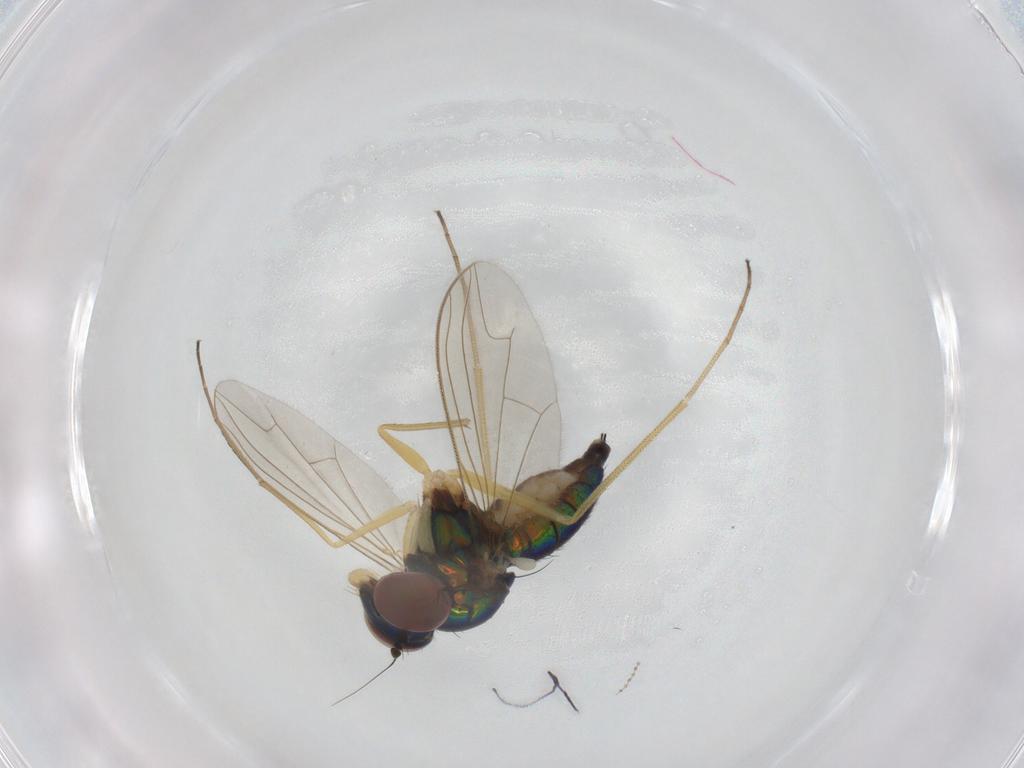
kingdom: Animalia
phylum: Arthropoda
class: Insecta
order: Diptera
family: Dolichopodidae
